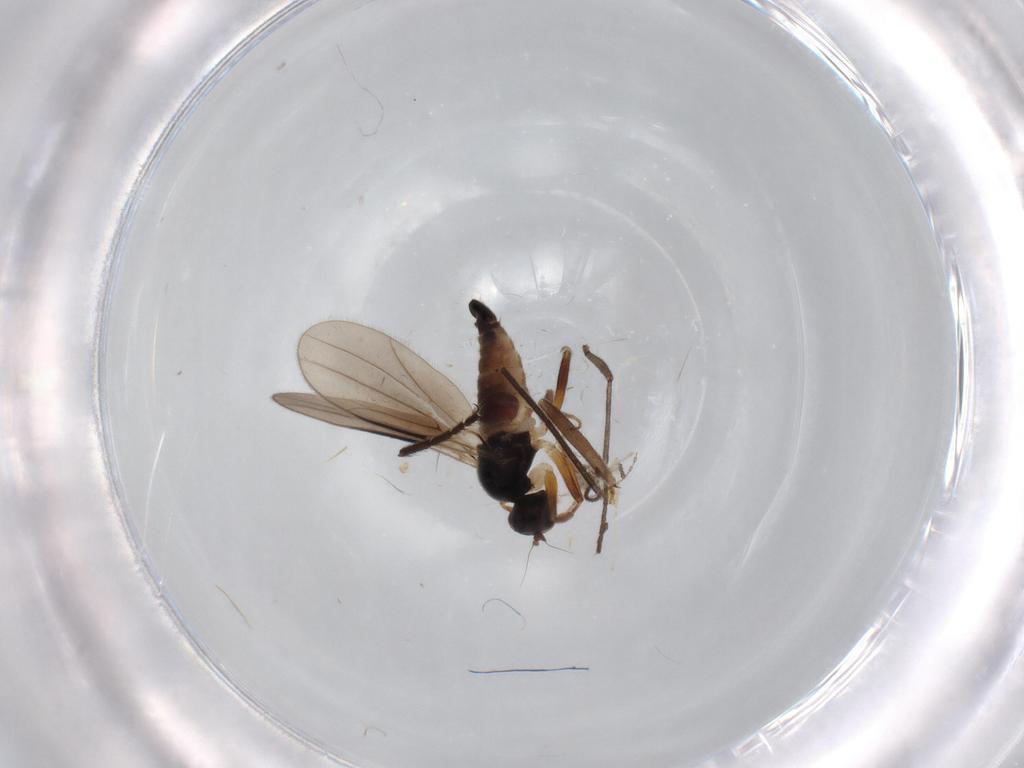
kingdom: Animalia
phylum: Arthropoda
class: Insecta
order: Diptera
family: Hybotidae
